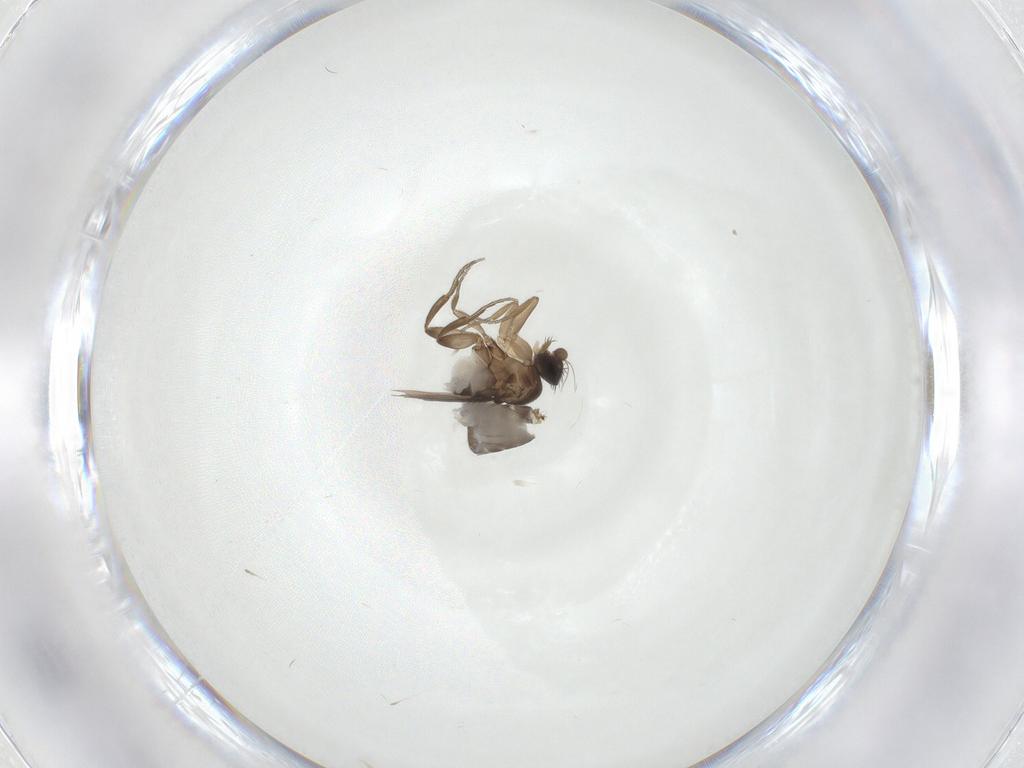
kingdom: Animalia
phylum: Arthropoda
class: Insecta
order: Diptera
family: Phoridae
